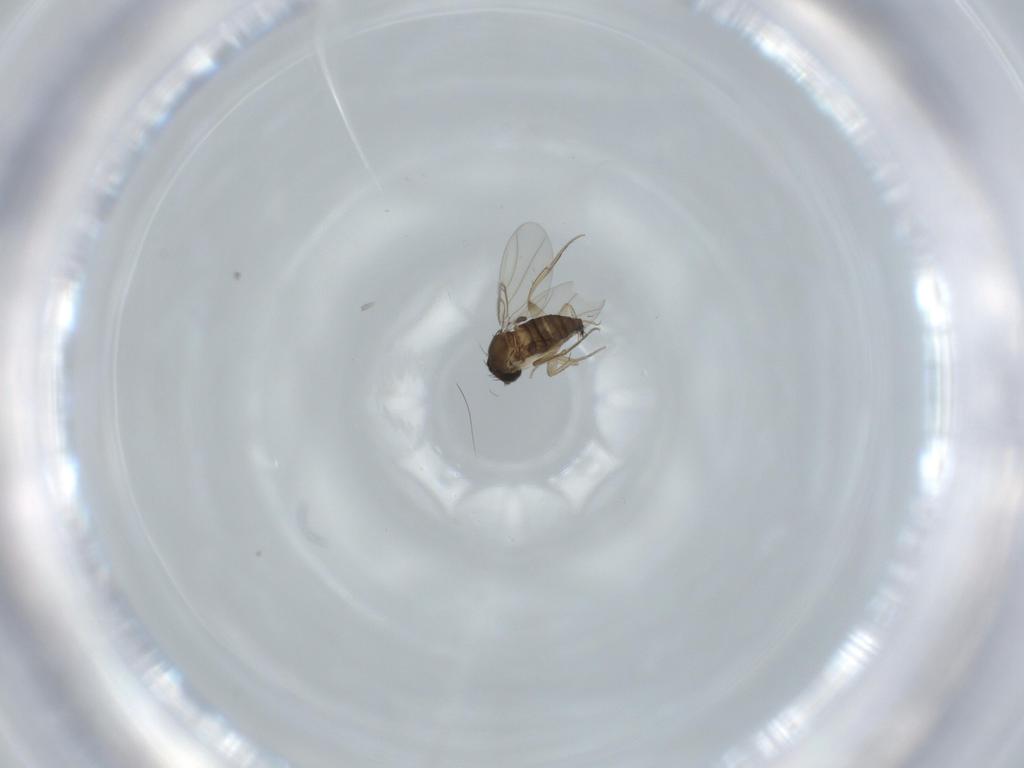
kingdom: Animalia
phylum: Arthropoda
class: Insecta
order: Diptera
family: Phoridae
